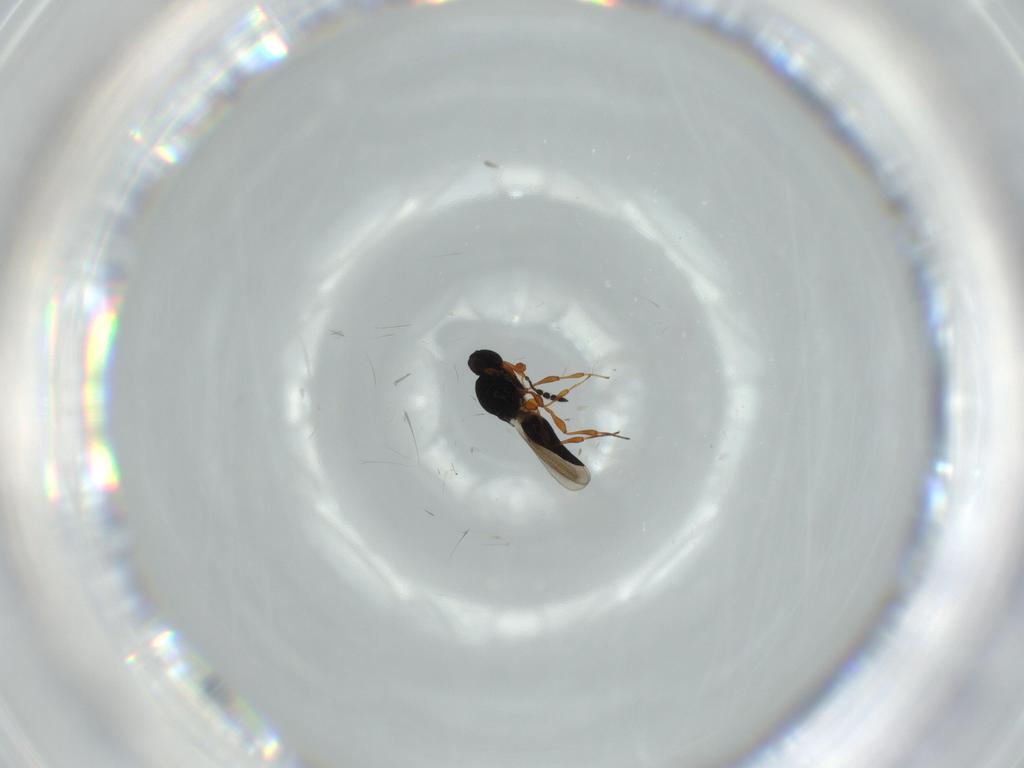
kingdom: Animalia
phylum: Arthropoda
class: Insecta
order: Hymenoptera
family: Platygastridae
